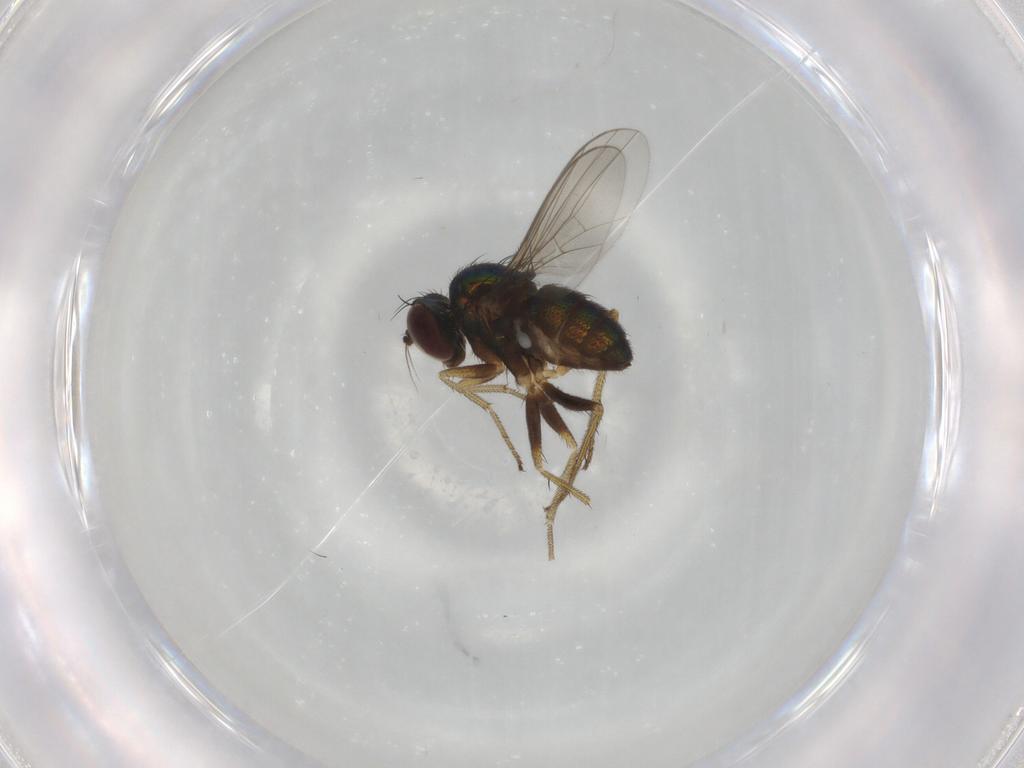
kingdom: Animalia
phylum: Arthropoda
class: Insecta
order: Diptera
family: Dolichopodidae
